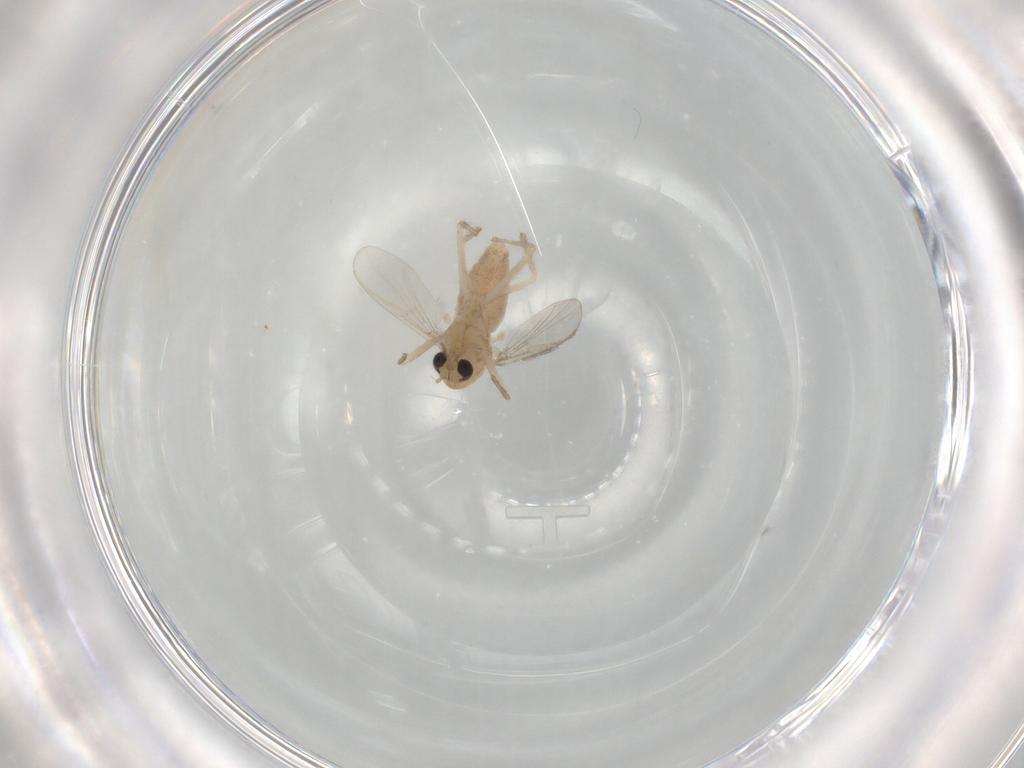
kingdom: Animalia
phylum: Arthropoda
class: Insecta
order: Diptera
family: Chironomidae
